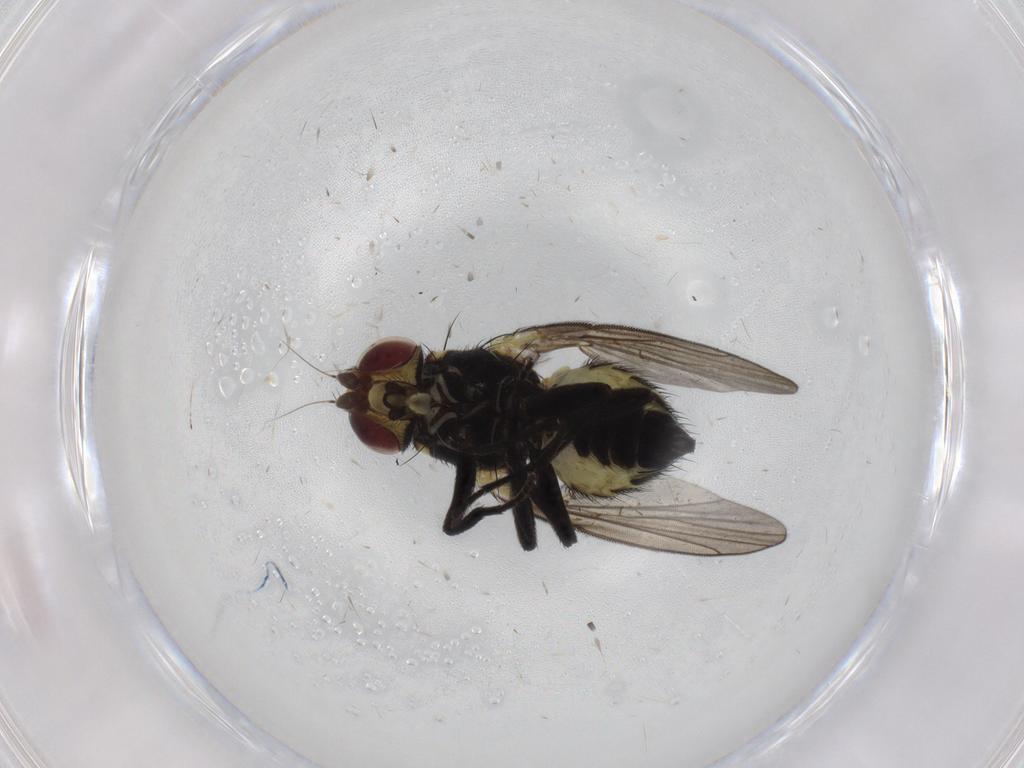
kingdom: Animalia
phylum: Arthropoda
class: Insecta
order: Diptera
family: Agromyzidae
